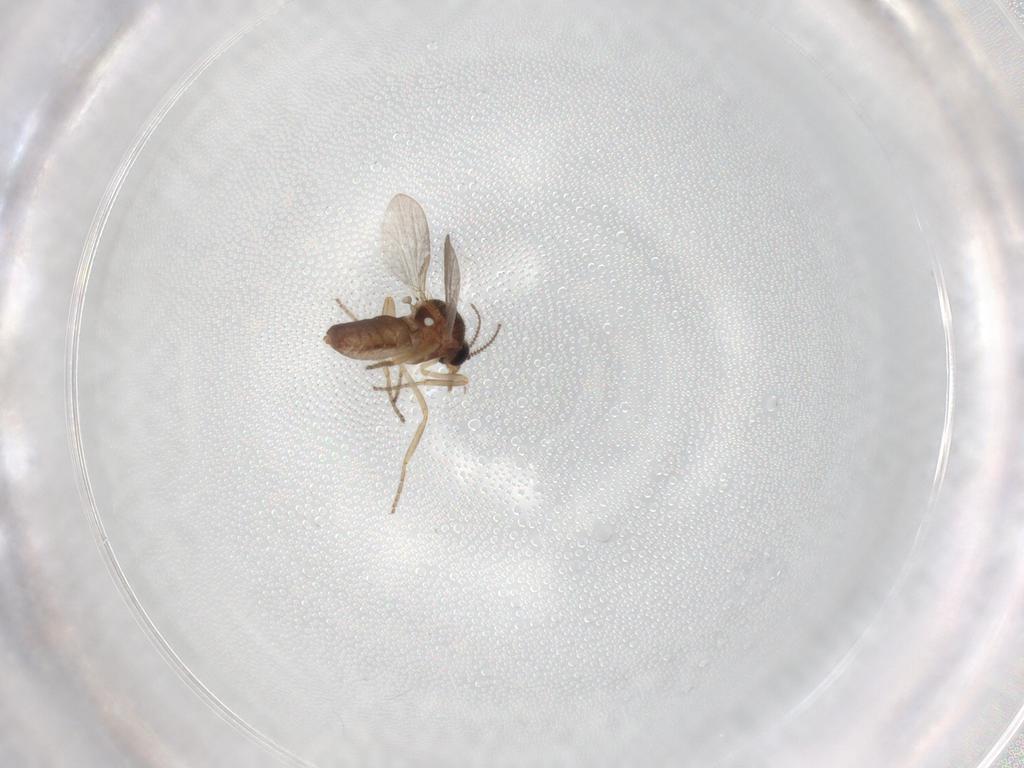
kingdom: Animalia
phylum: Arthropoda
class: Insecta
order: Diptera
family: Ceratopogonidae
